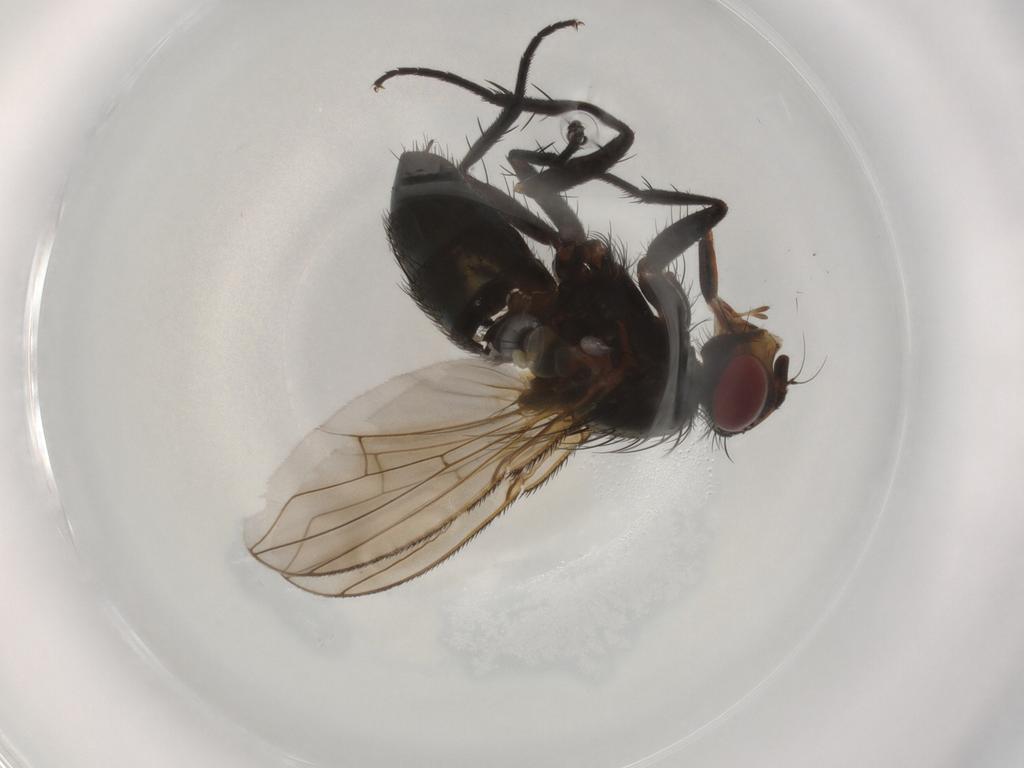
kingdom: Animalia
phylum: Arthropoda
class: Insecta
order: Diptera
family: Calliphoridae
